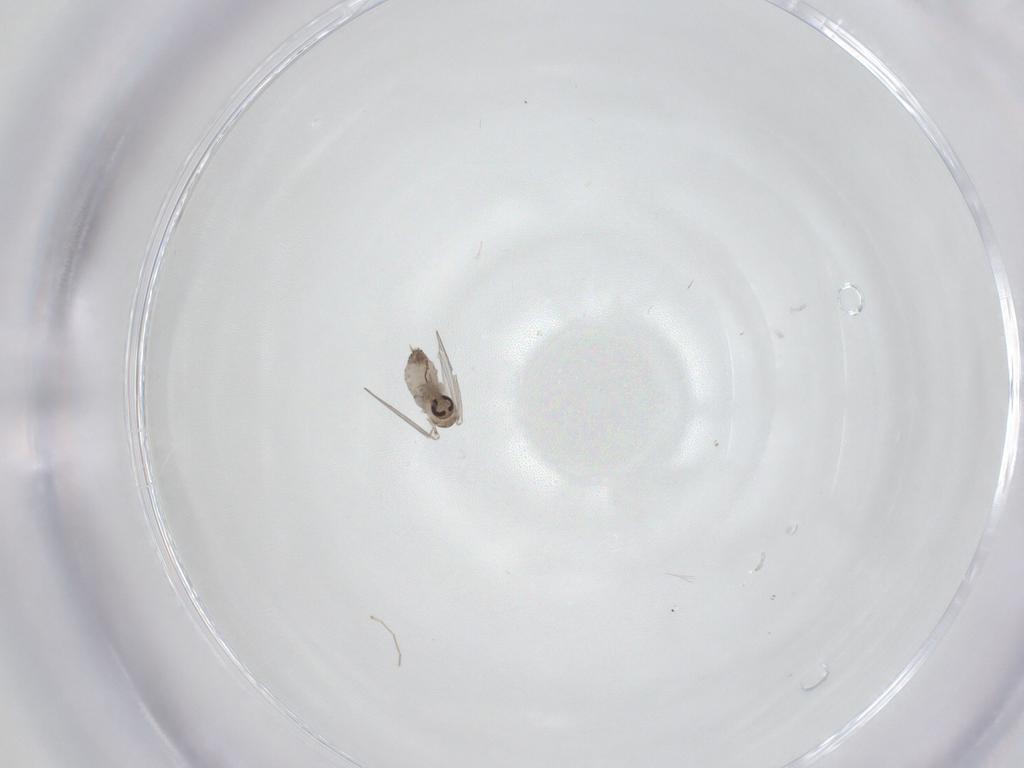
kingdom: Animalia
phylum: Arthropoda
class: Insecta
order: Diptera
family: Psychodidae
